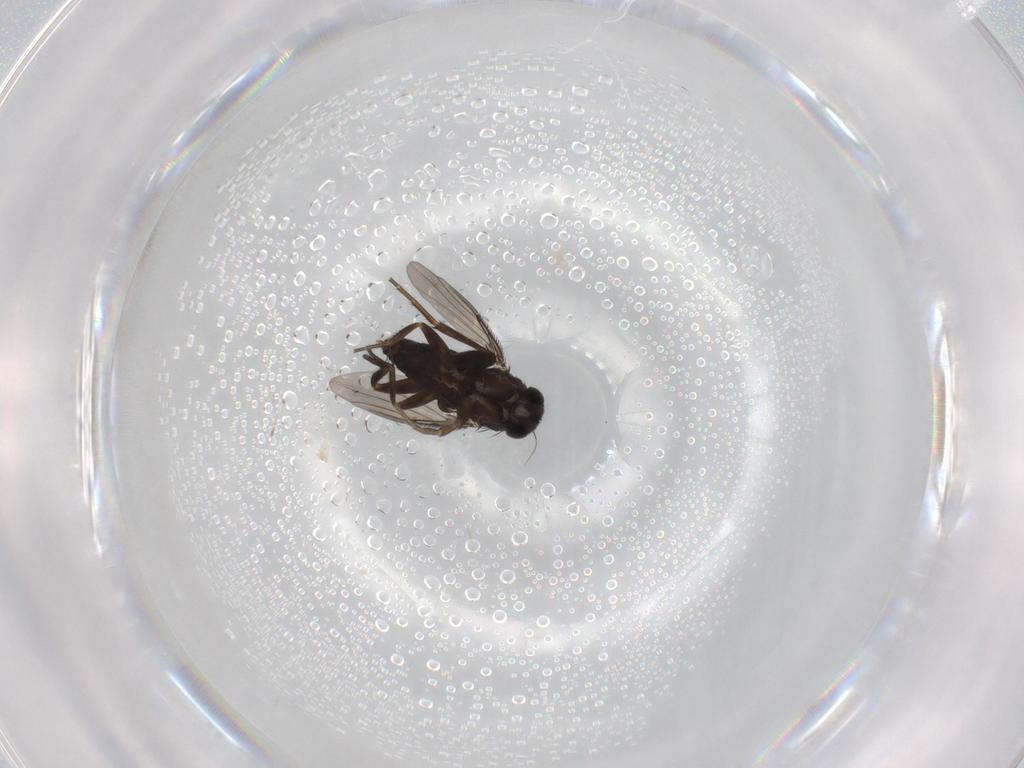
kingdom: Animalia
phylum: Arthropoda
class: Insecta
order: Diptera
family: Phoridae
